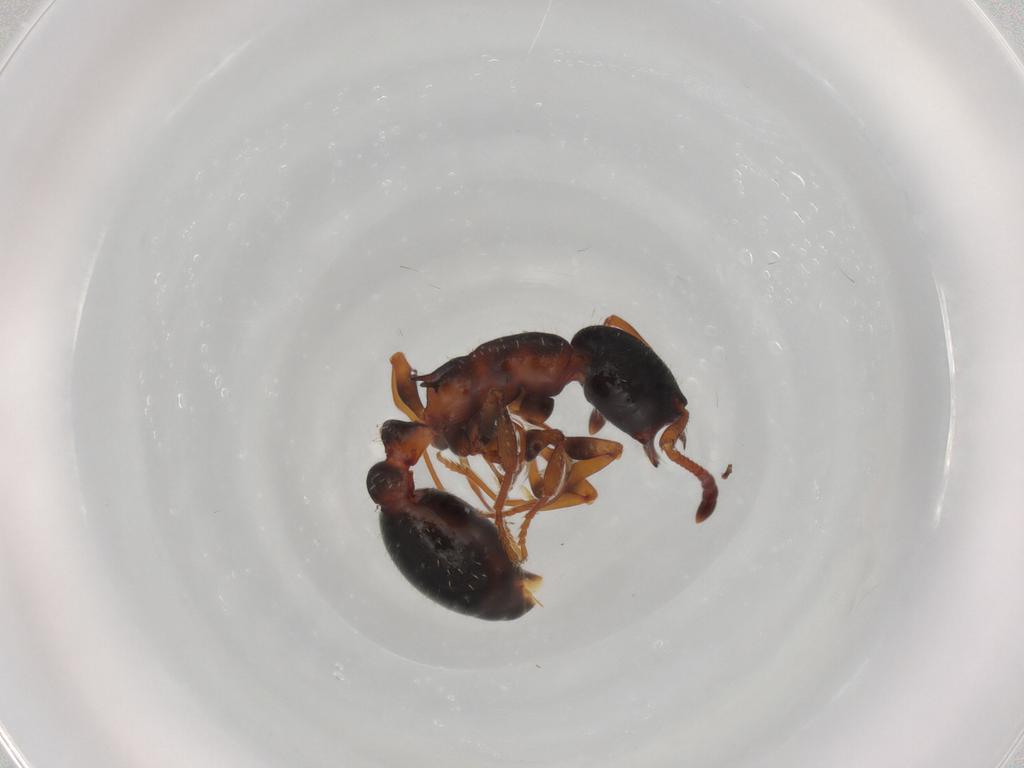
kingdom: Animalia
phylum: Arthropoda
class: Insecta
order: Hymenoptera
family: Formicidae
